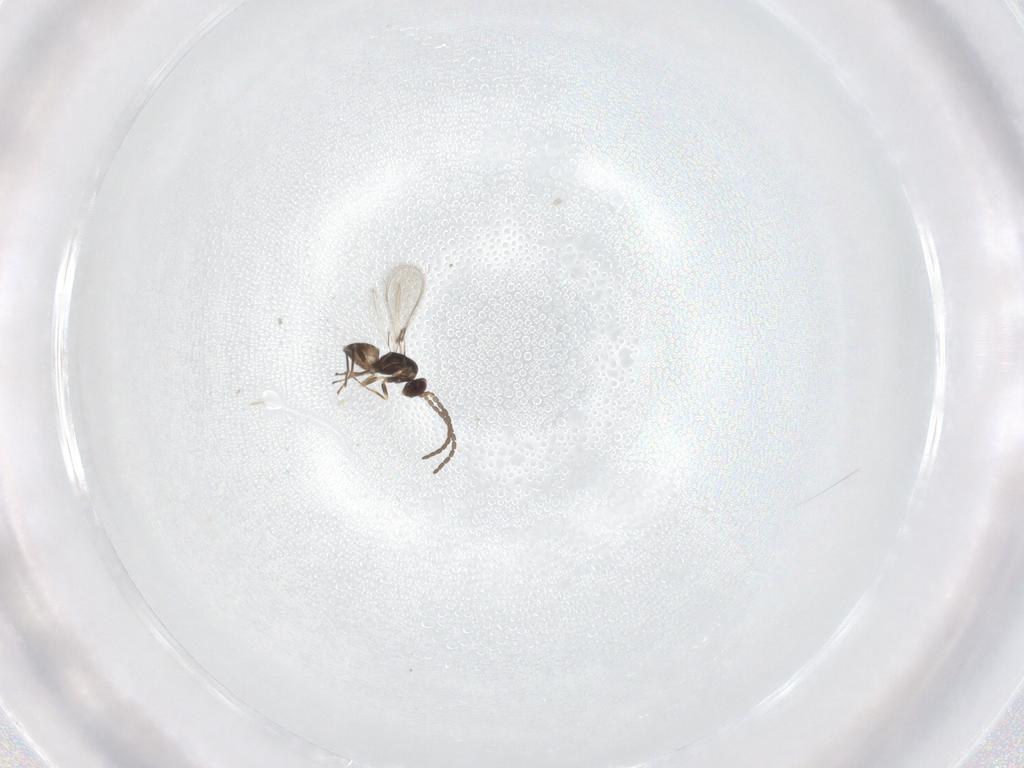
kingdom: Animalia
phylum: Arthropoda
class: Insecta
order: Hymenoptera
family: Mymaridae
